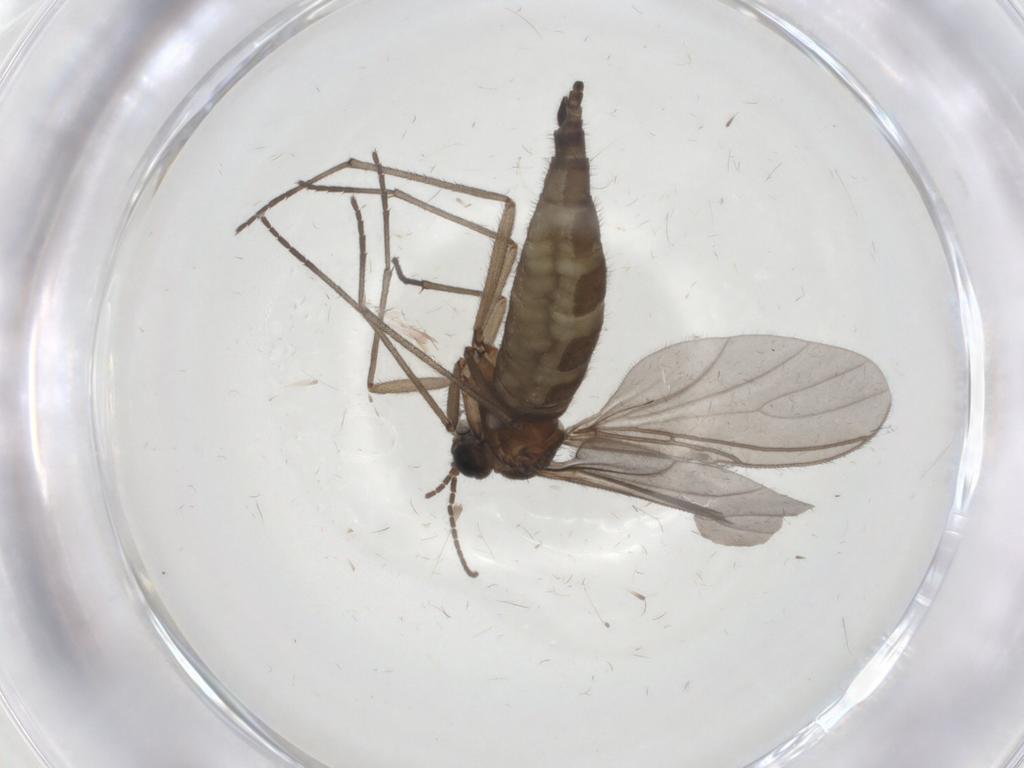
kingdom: Animalia
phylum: Arthropoda
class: Insecta
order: Diptera
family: Sciaridae
